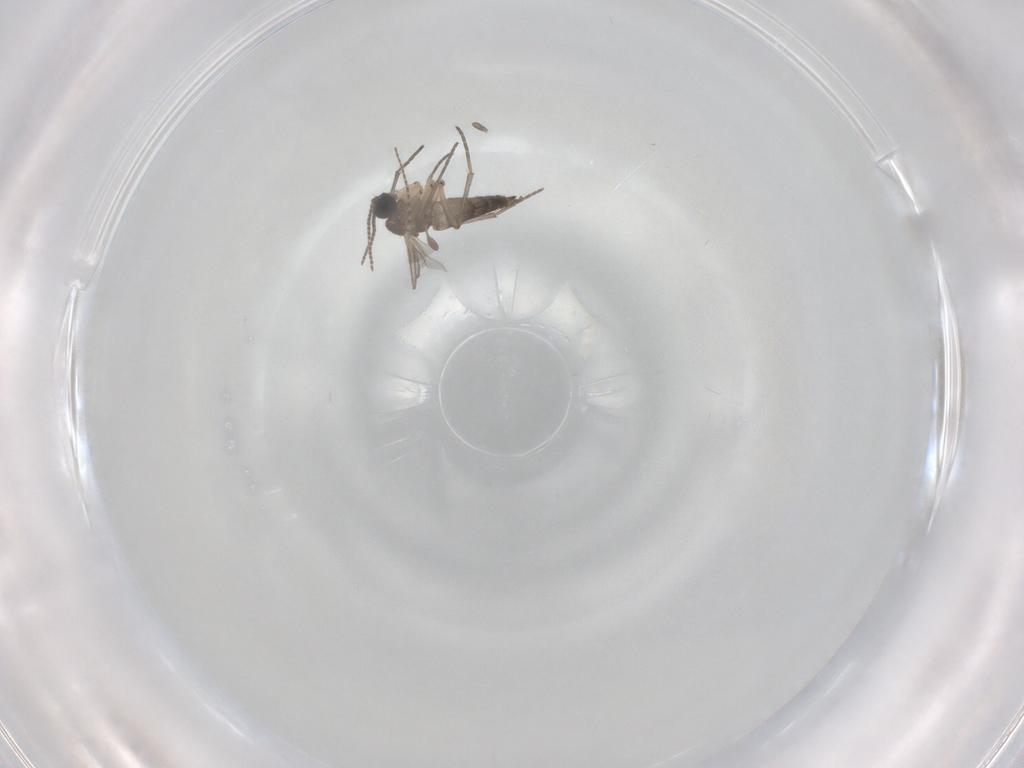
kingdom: Animalia
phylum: Arthropoda
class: Insecta
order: Diptera
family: Sciaridae
